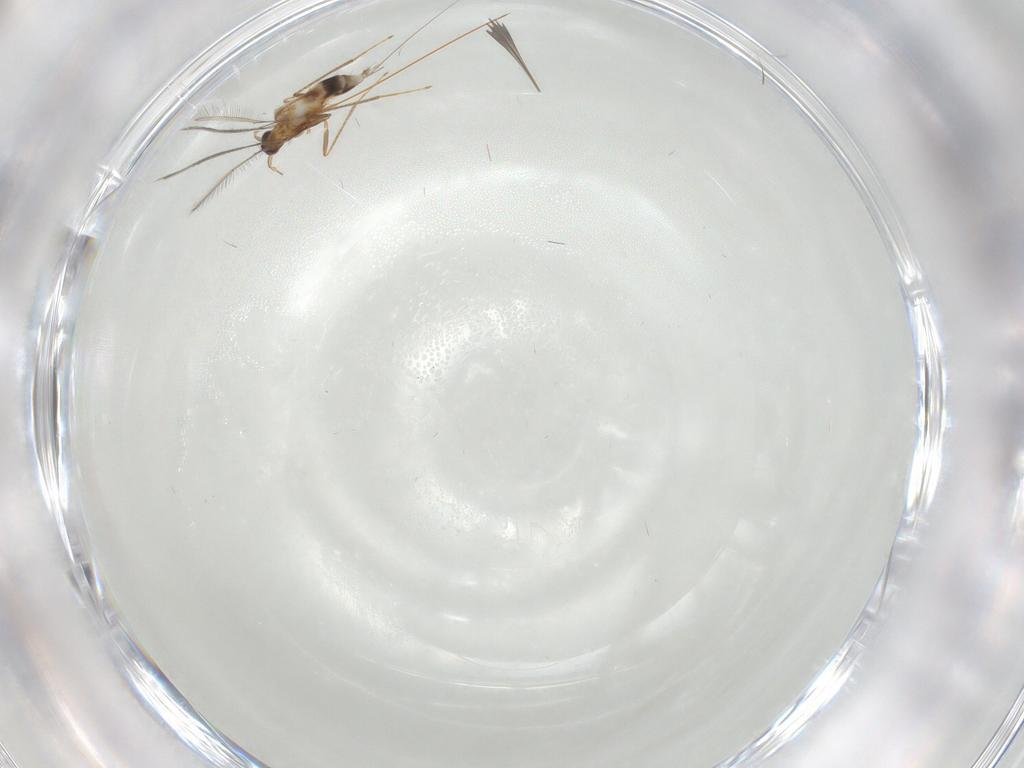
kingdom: Animalia
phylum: Arthropoda
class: Insecta
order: Hymenoptera
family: Mymaridae
